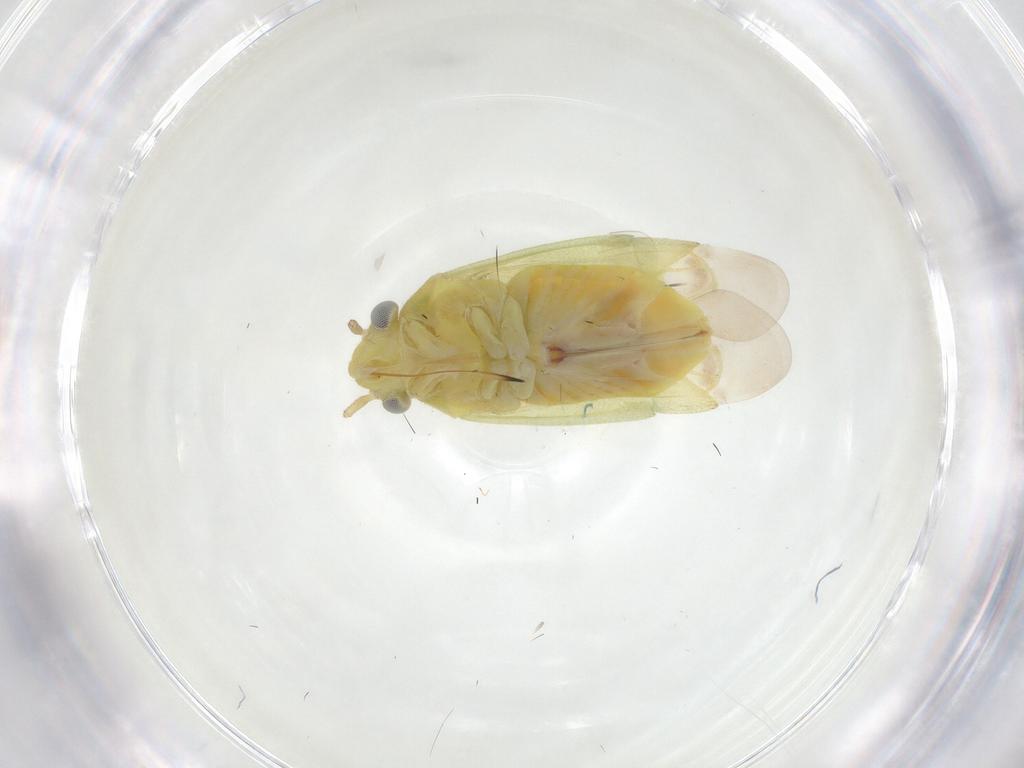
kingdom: Animalia
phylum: Arthropoda
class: Insecta
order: Hemiptera
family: Miridae
